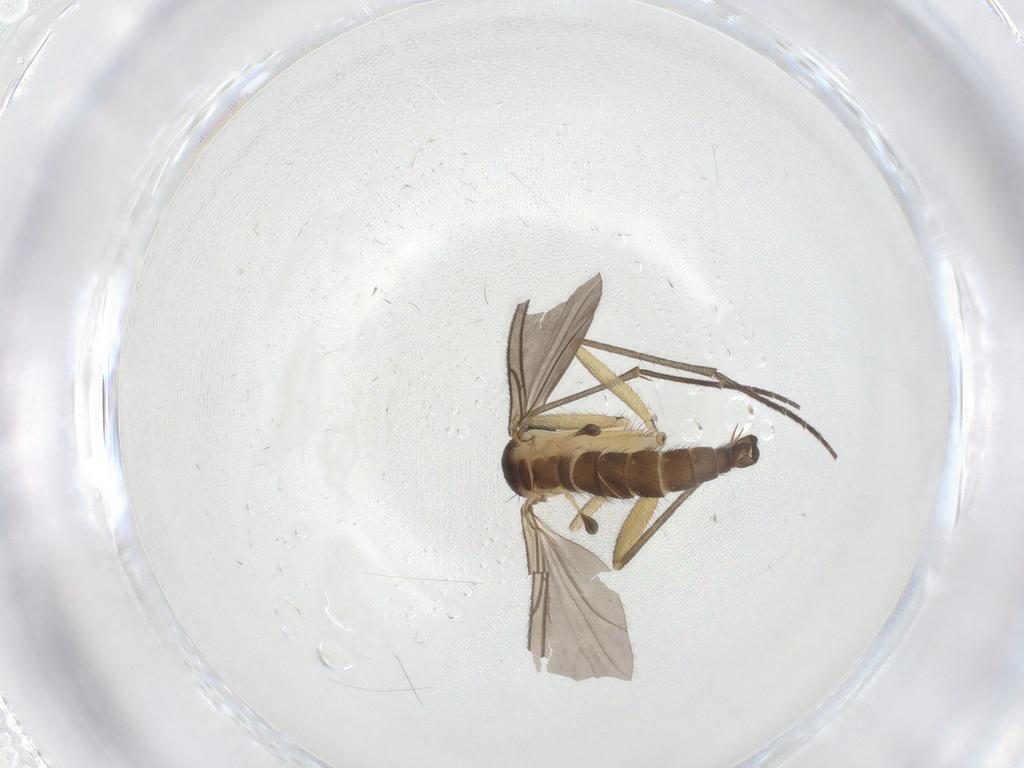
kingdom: Animalia
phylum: Arthropoda
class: Insecta
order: Diptera
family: Sciaridae
